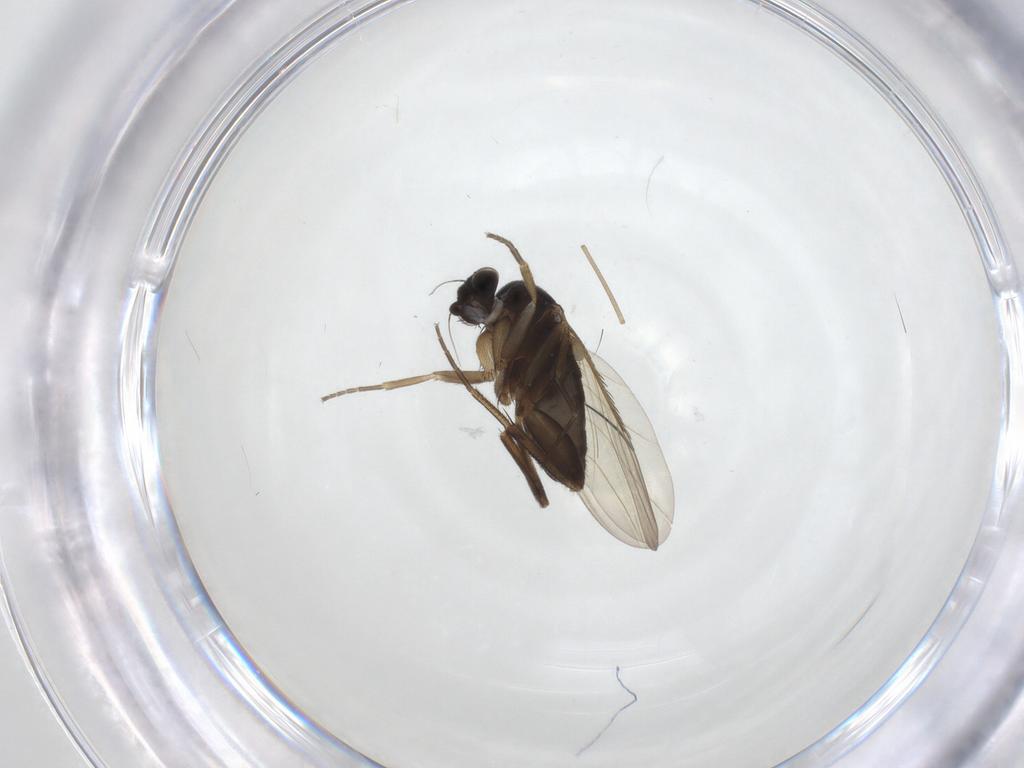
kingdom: Animalia
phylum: Arthropoda
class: Insecta
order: Diptera
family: Phoridae
